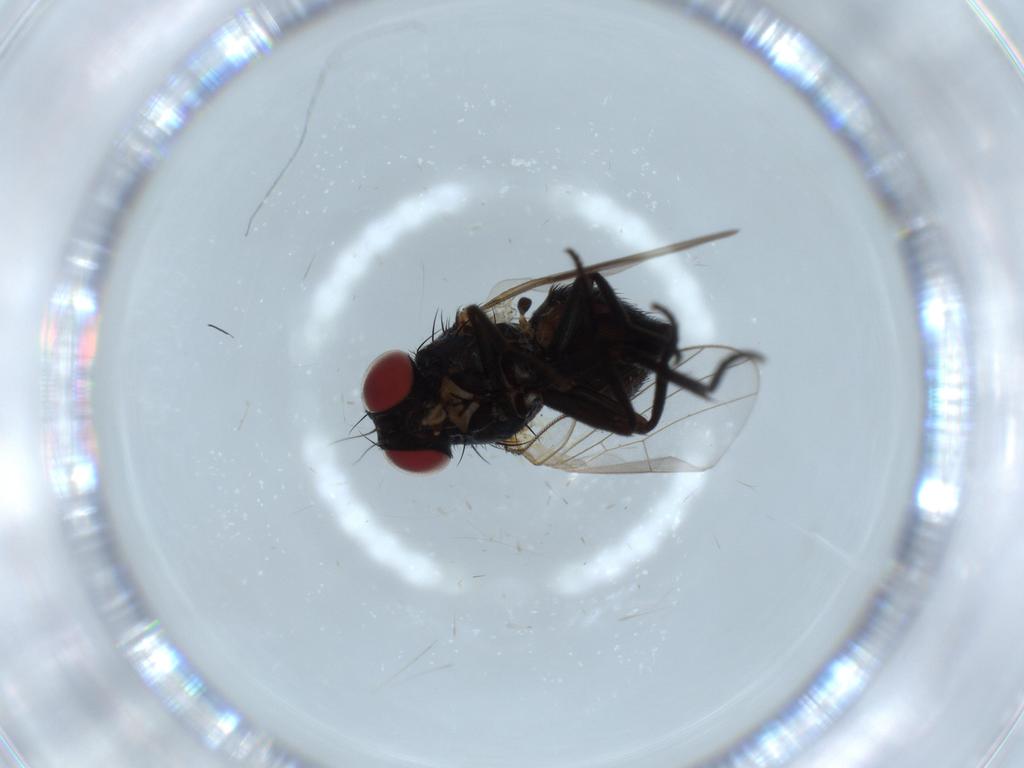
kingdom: Animalia
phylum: Arthropoda
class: Insecta
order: Diptera
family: Agromyzidae
